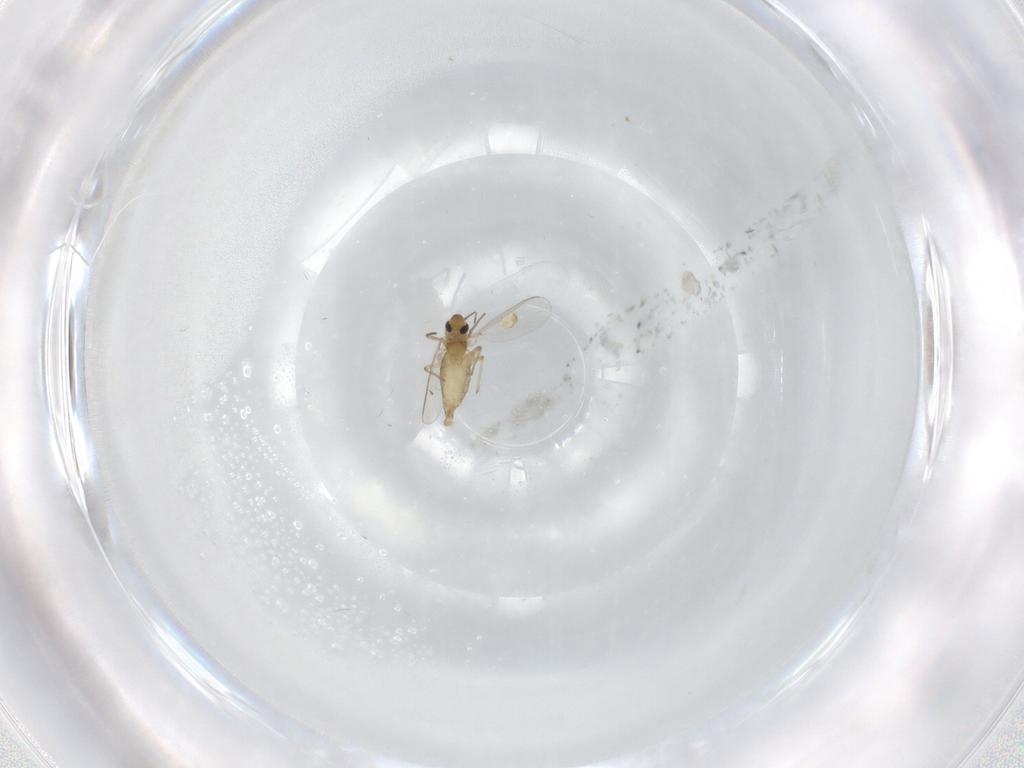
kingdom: Animalia
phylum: Arthropoda
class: Insecta
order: Diptera
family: Chironomidae
